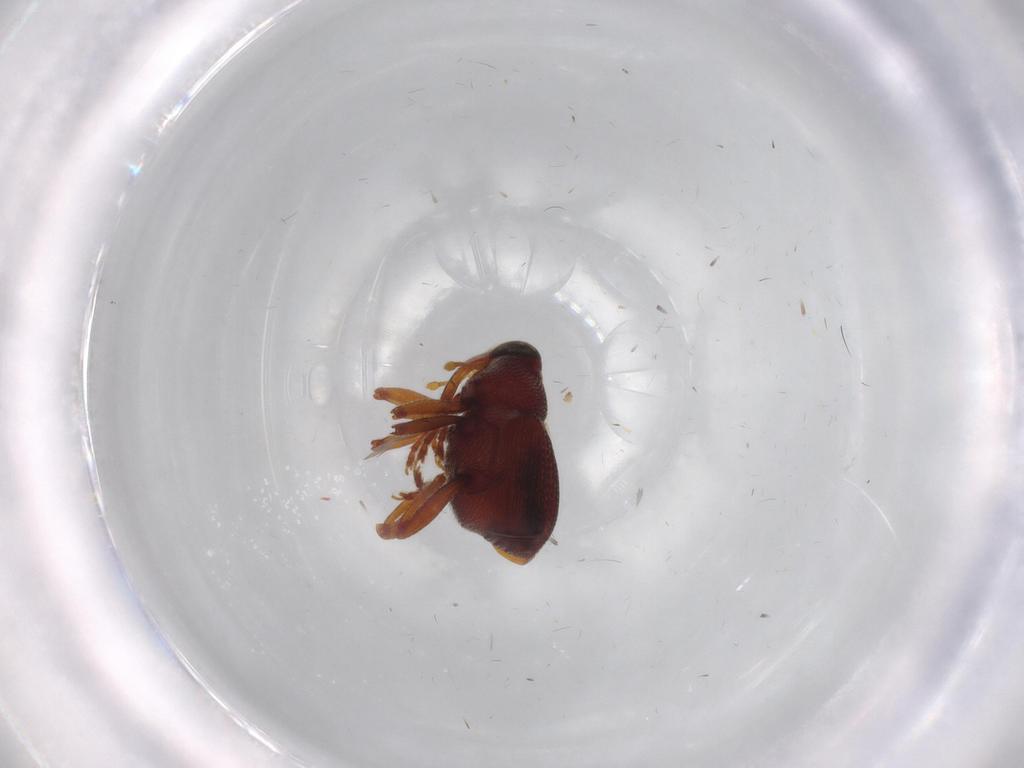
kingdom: Animalia
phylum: Arthropoda
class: Insecta
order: Coleoptera
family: Curculionidae
